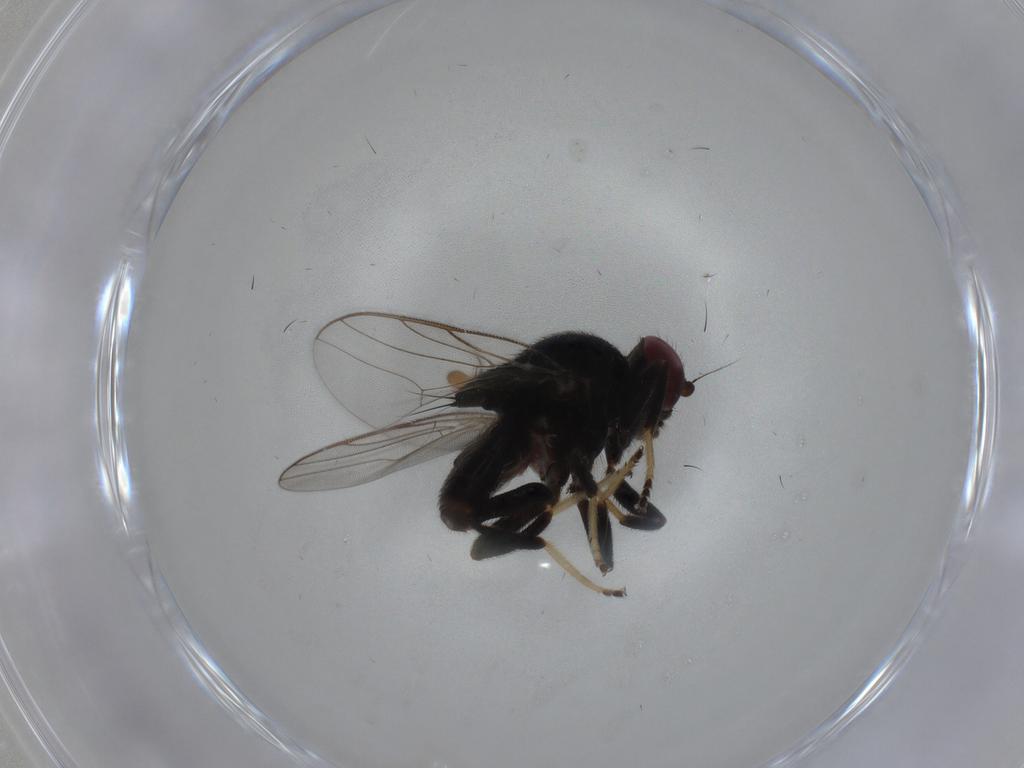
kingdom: Animalia
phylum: Arthropoda
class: Insecta
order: Diptera
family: Chloropidae
